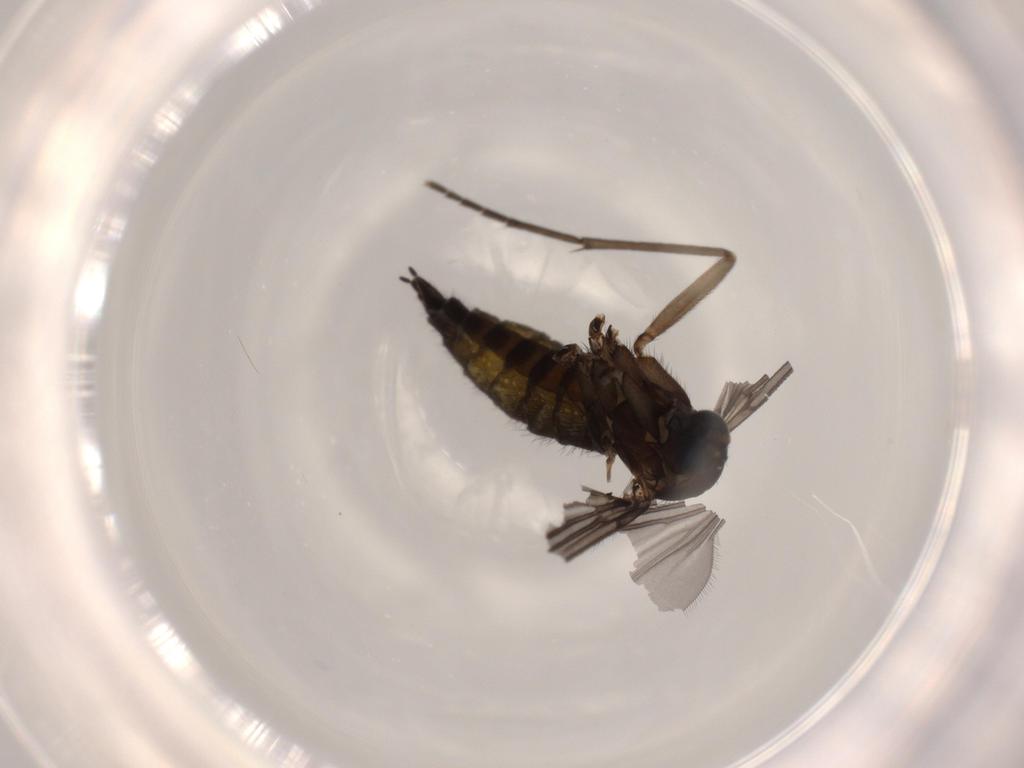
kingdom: Animalia
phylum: Arthropoda
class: Insecta
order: Diptera
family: Sciaridae
